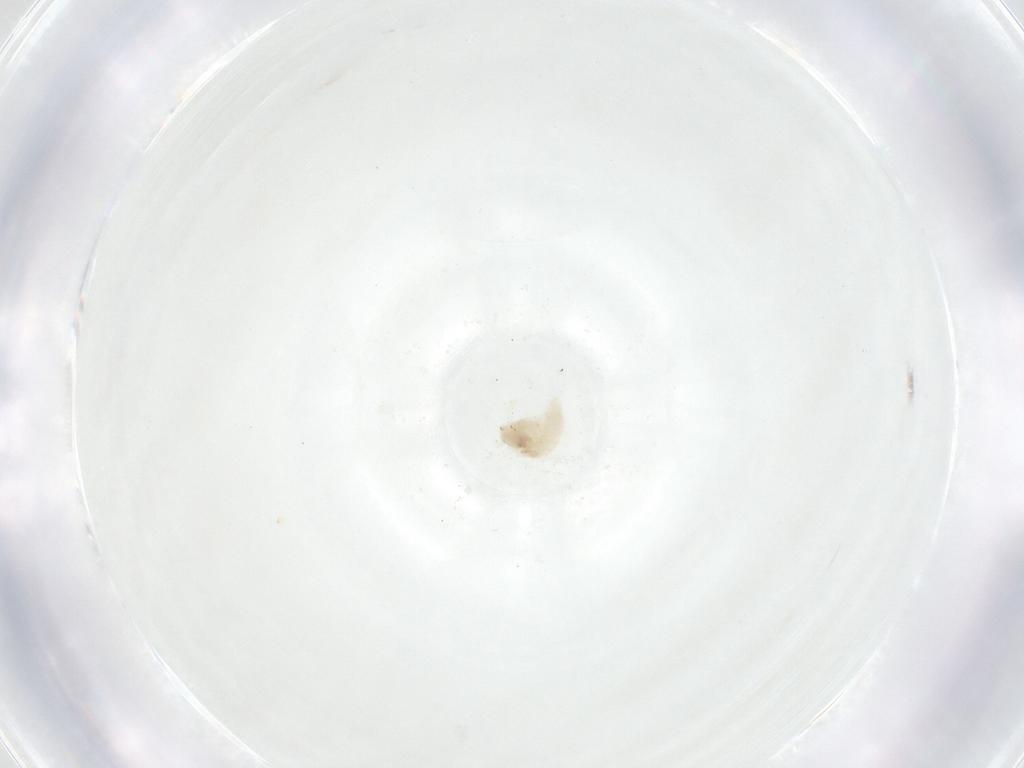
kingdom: Animalia
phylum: Arthropoda
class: Insecta
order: Diptera
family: Fergusoninidae
